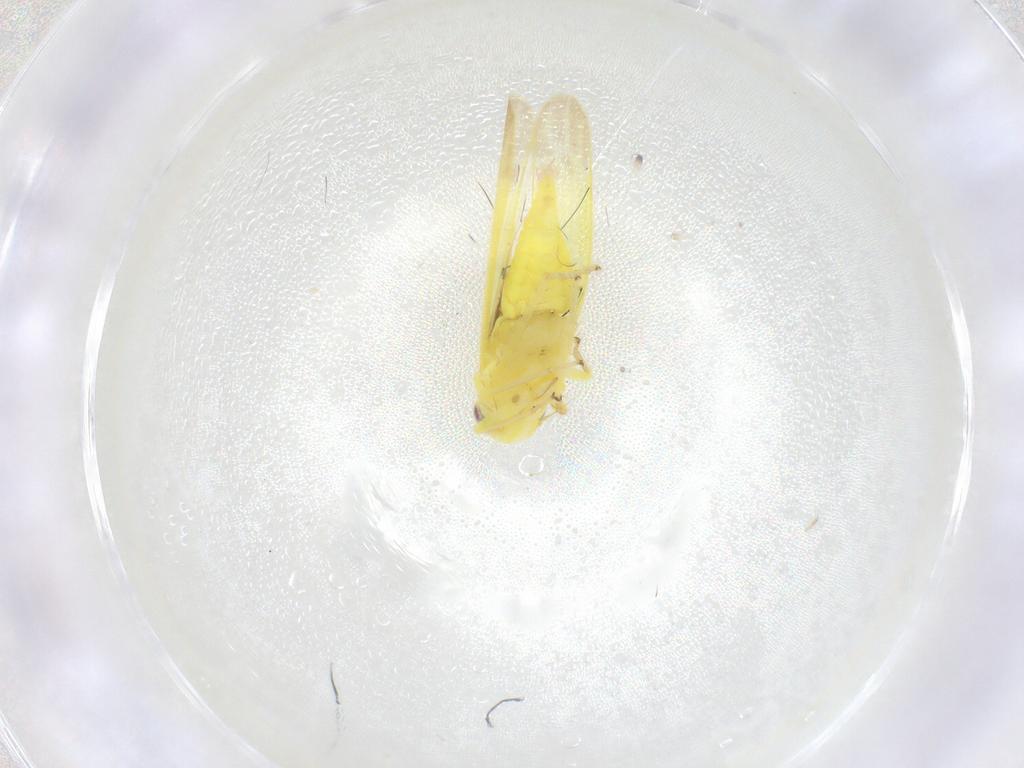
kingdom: Animalia
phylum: Arthropoda
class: Insecta
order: Hemiptera
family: Cicadellidae
